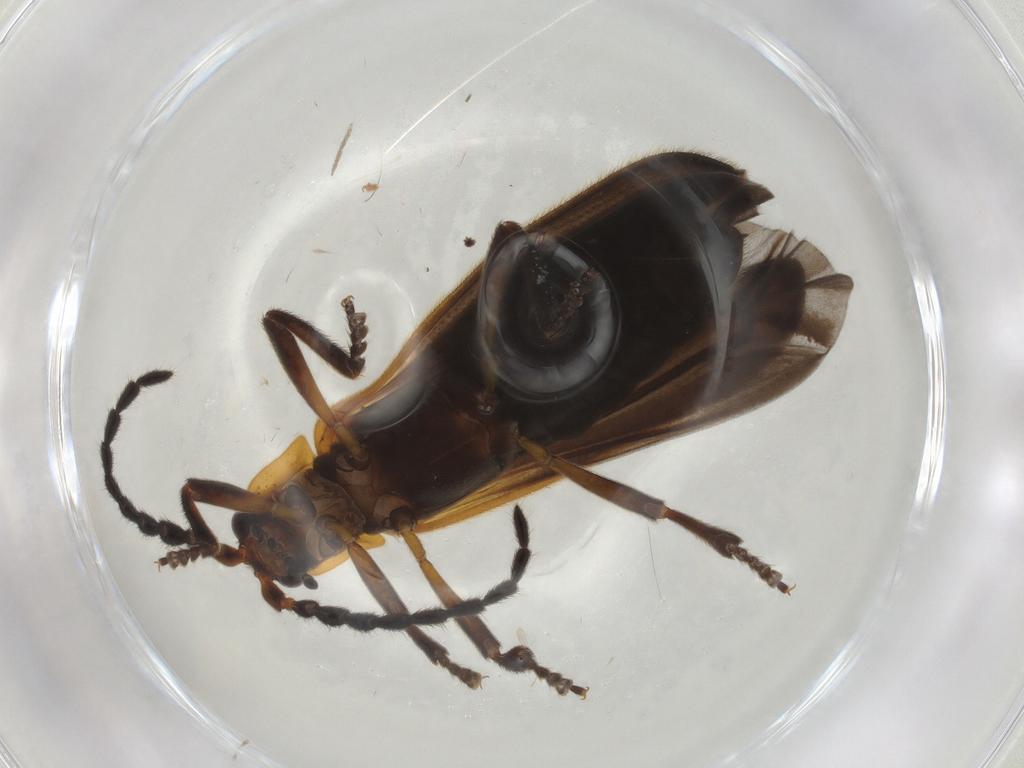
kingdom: Animalia
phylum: Arthropoda
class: Insecta
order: Coleoptera
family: Lycidae
